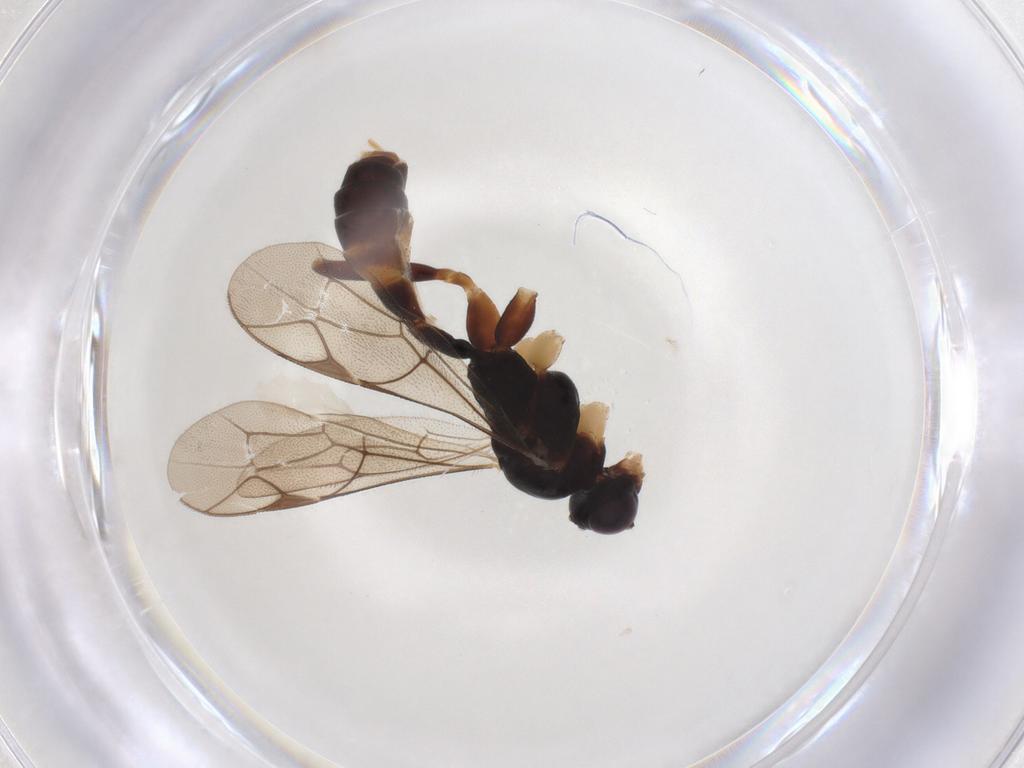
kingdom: Animalia
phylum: Arthropoda
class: Insecta
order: Hymenoptera
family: Ichneumonidae
